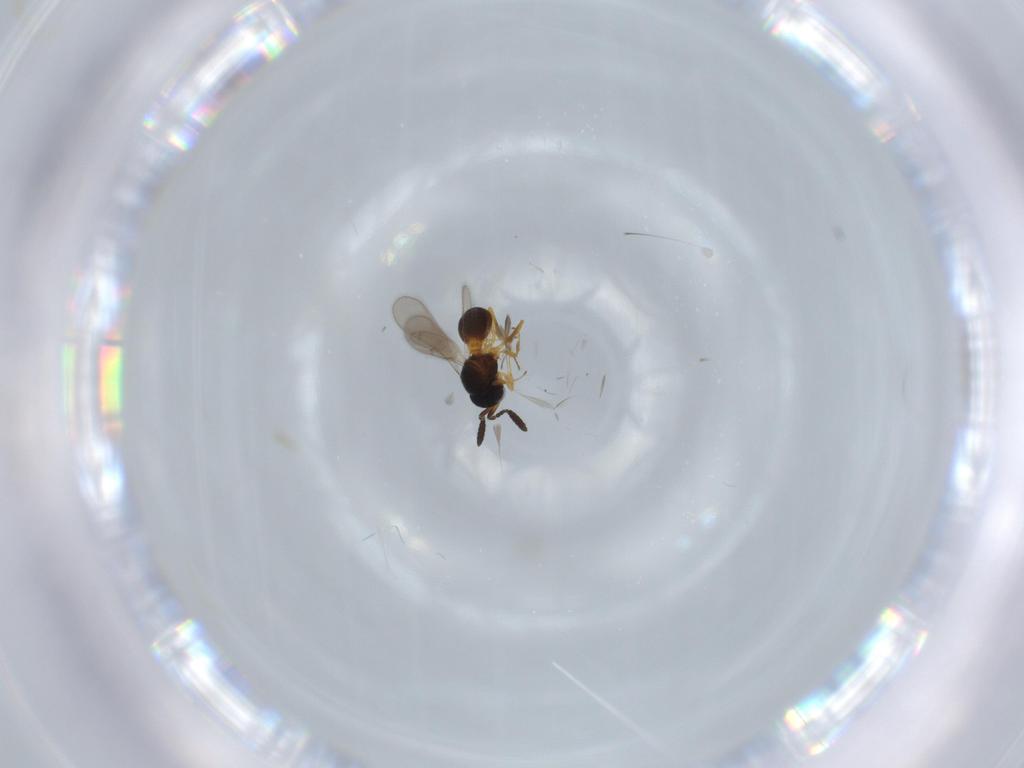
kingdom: Animalia
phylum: Arthropoda
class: Insecta
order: Hymenoptera
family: Scelionidae
